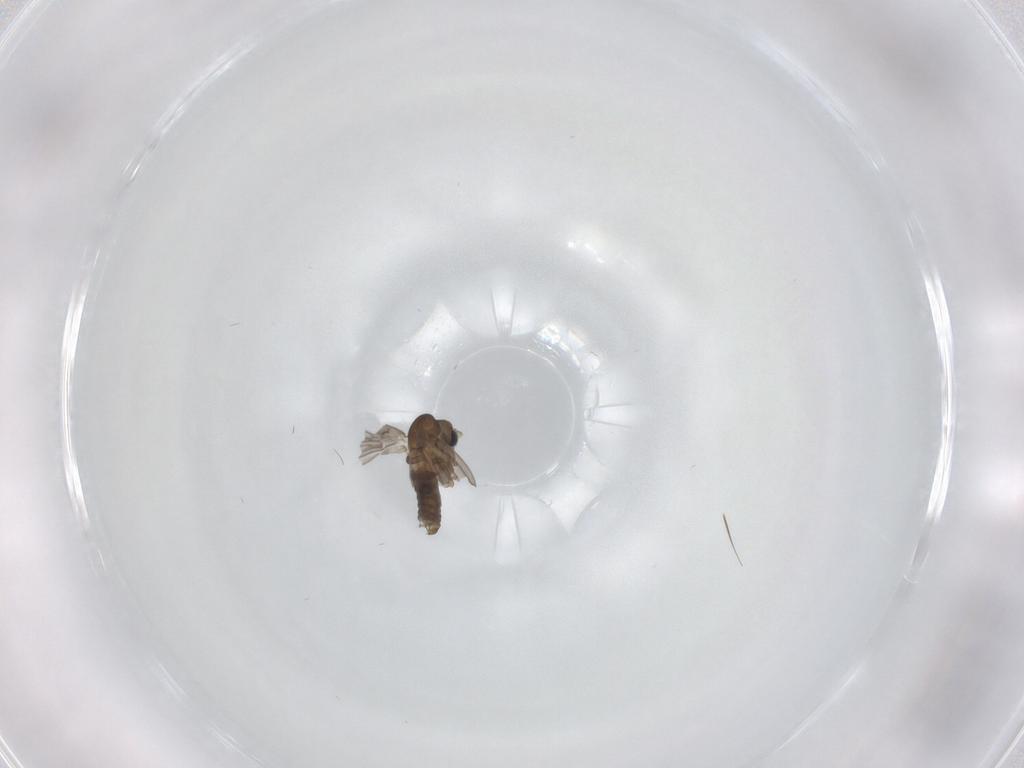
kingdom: Animalia
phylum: Arthropoda
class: Insecta
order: Diptera
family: Psychodidae
